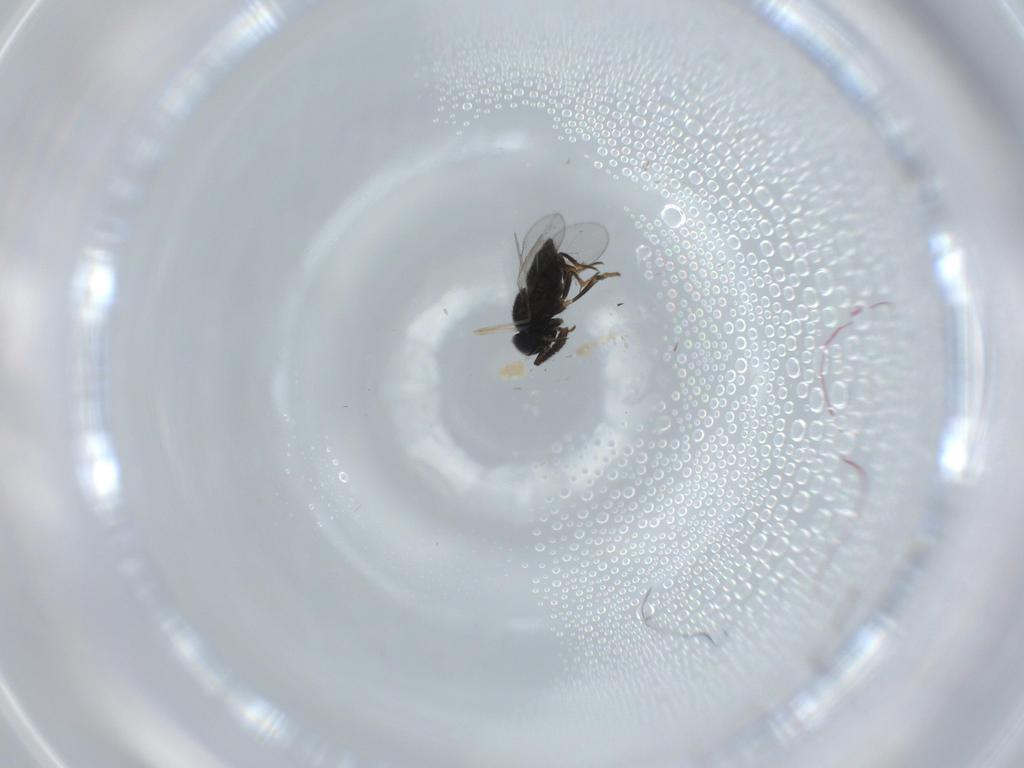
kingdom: Animalia
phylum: Arthropoda
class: Insecta
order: Hymenoptera
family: Encyrtidae
